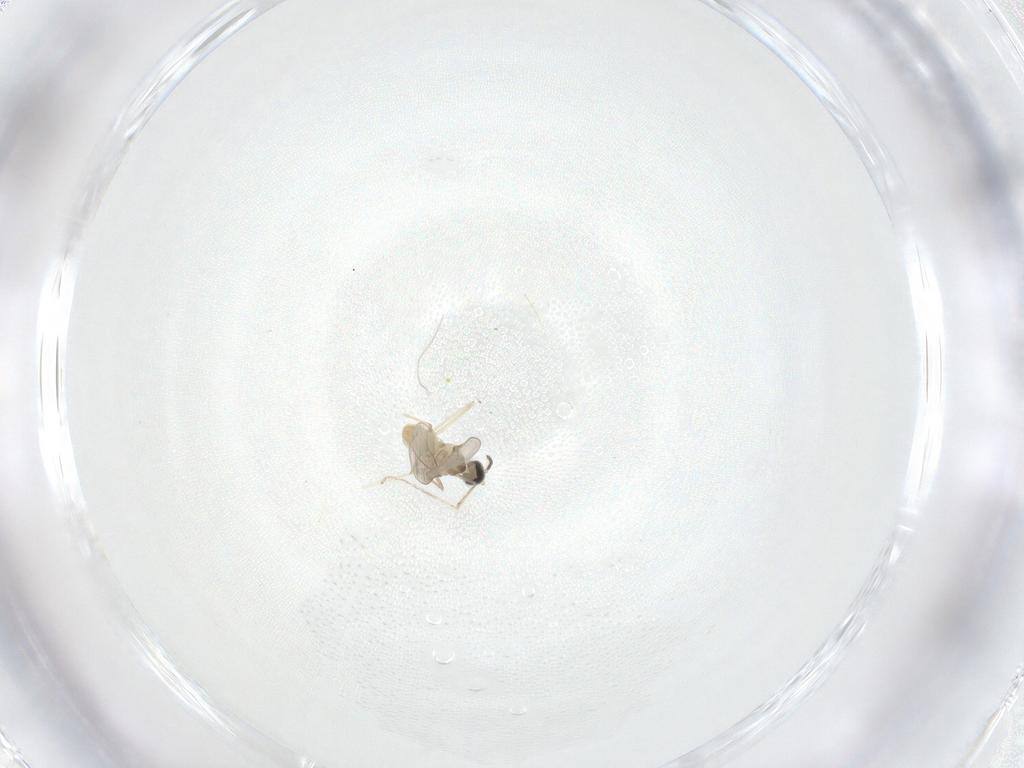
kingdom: Animalia
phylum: Arthropoda
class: Insecta
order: Diptera
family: Cecidomyiidae
